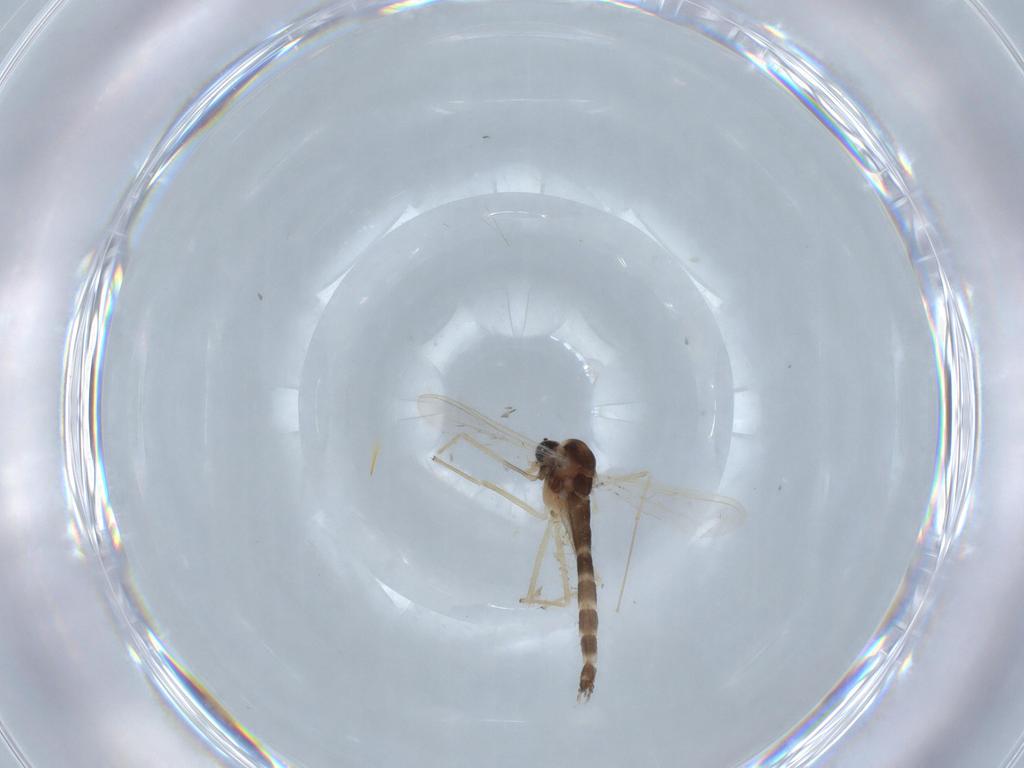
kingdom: Animalia
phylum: Arthropoda
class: Insecta
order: Diptera
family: Chironomidae
